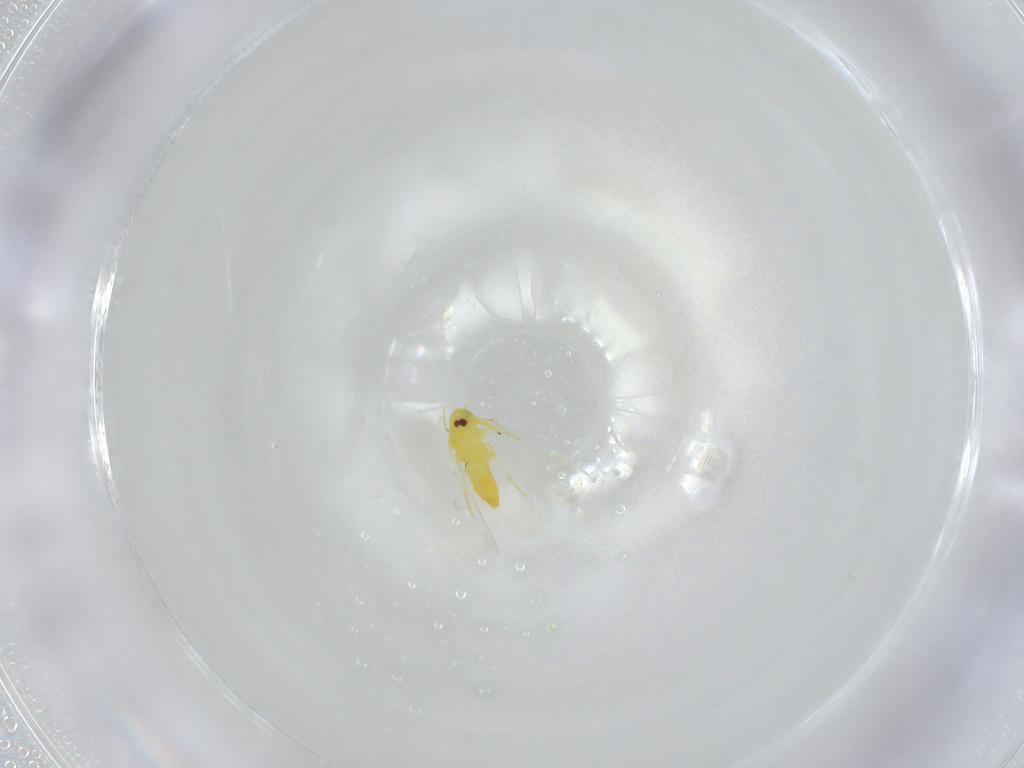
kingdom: Animalia
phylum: Arthropoda
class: Insecta
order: Hemiptera
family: Aleyrodidae
